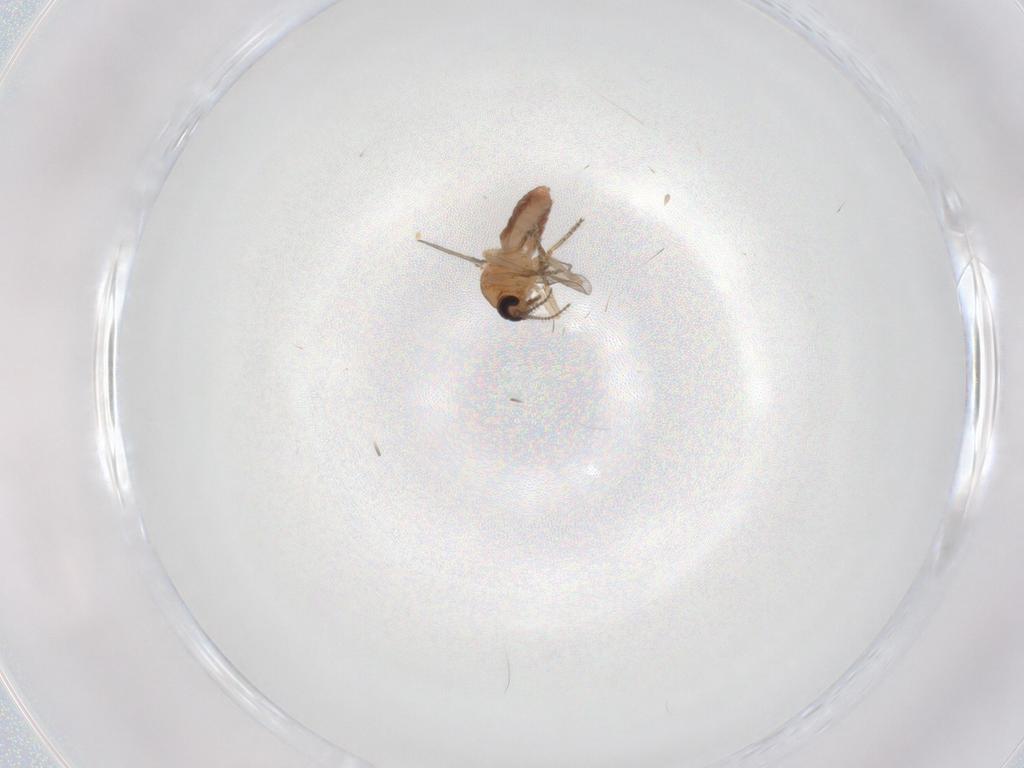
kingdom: Animalia
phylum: Arthropoda
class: Insecta
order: Diptera
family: Ceratopogonidae
